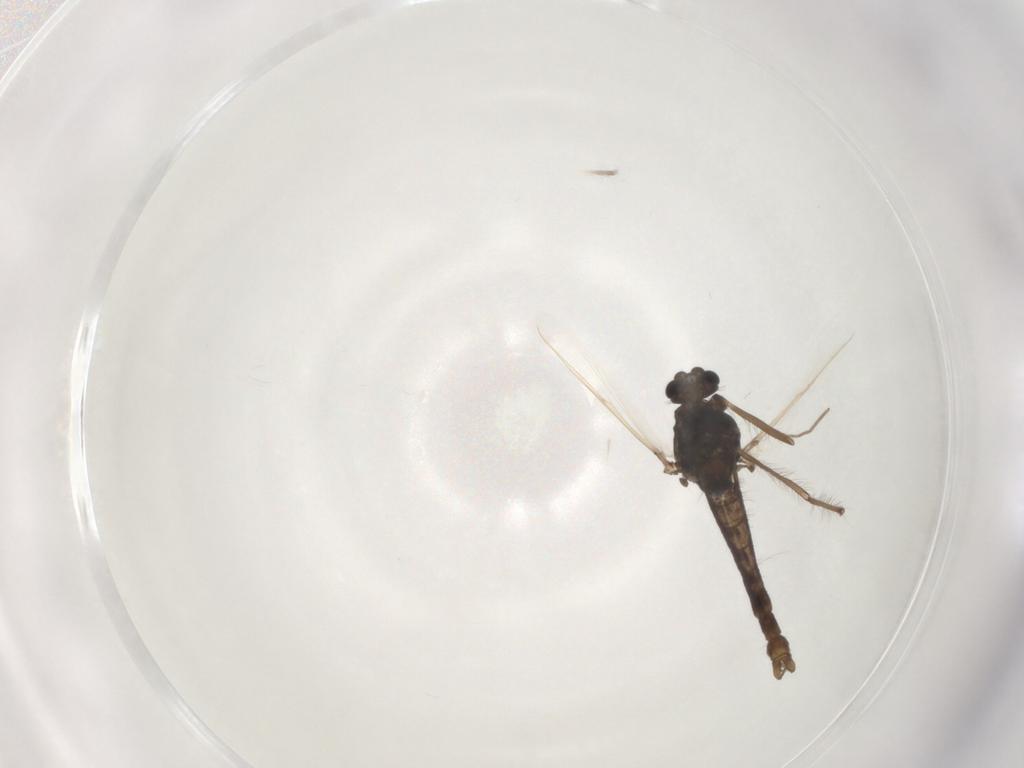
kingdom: Animalia
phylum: Arthropoda
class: Insecta
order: Diptera
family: Chironomidae
